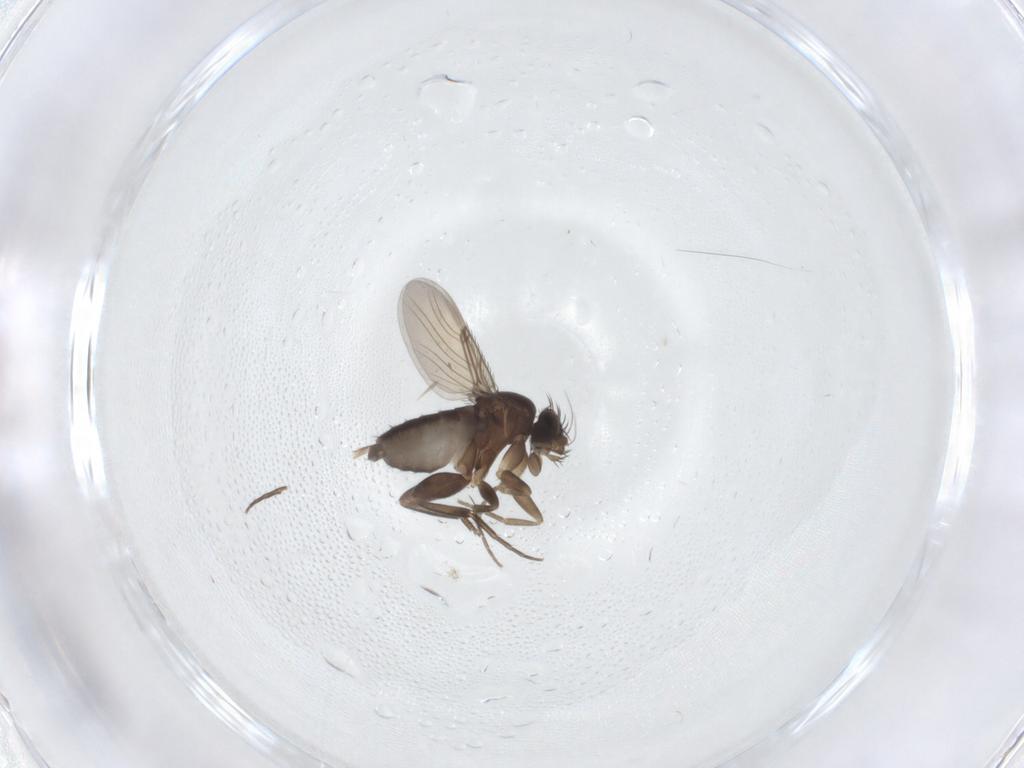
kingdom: Animalia
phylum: Arthropoda
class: Insecta
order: Diptera
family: Phoridae
